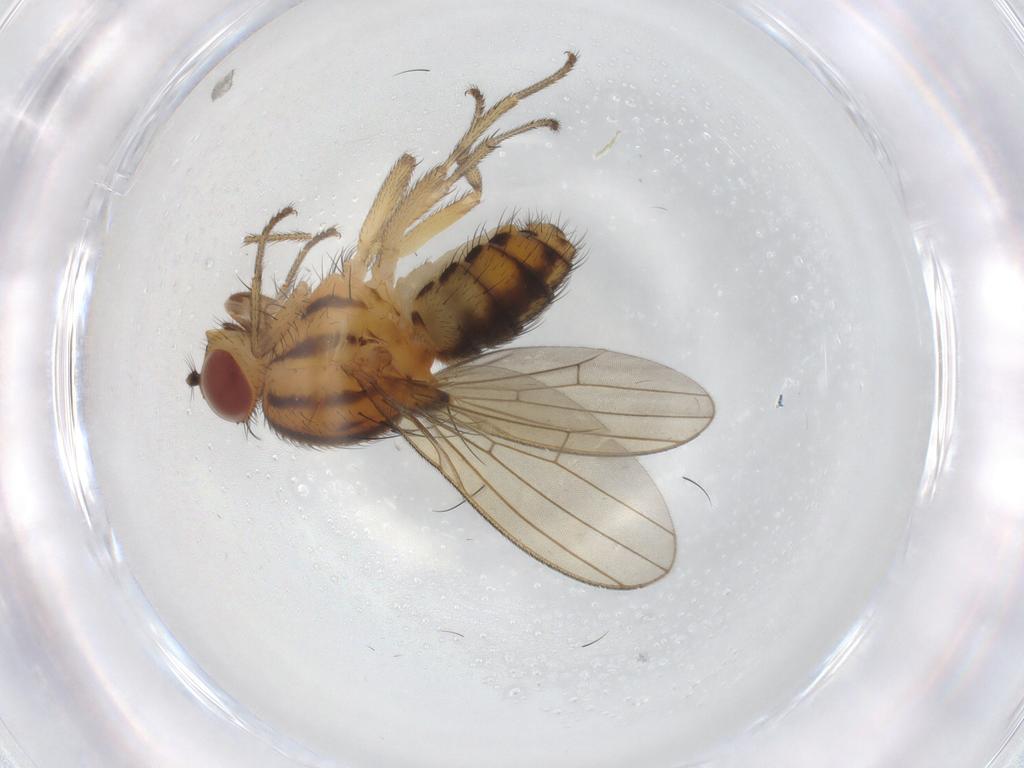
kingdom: Animalia
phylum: Arthropoda
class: Insecta
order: Diptera
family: Ceratopogonidae
